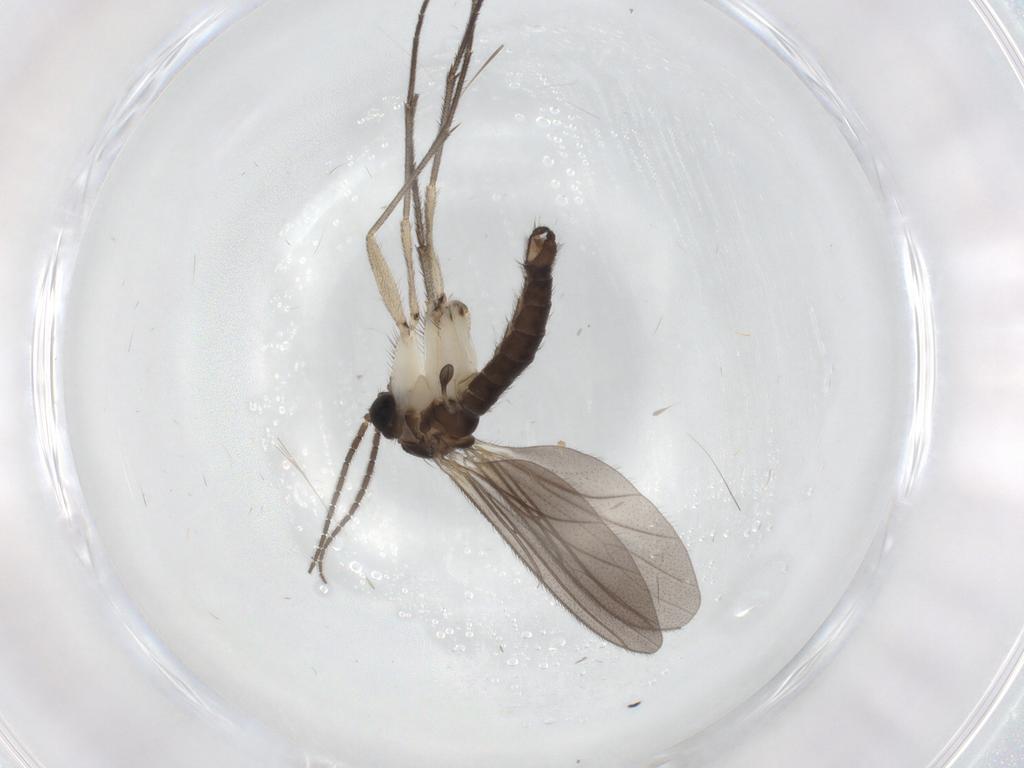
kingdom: Animalia
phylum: Arthropoda
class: Insecta
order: Diptera
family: Sciaridae
